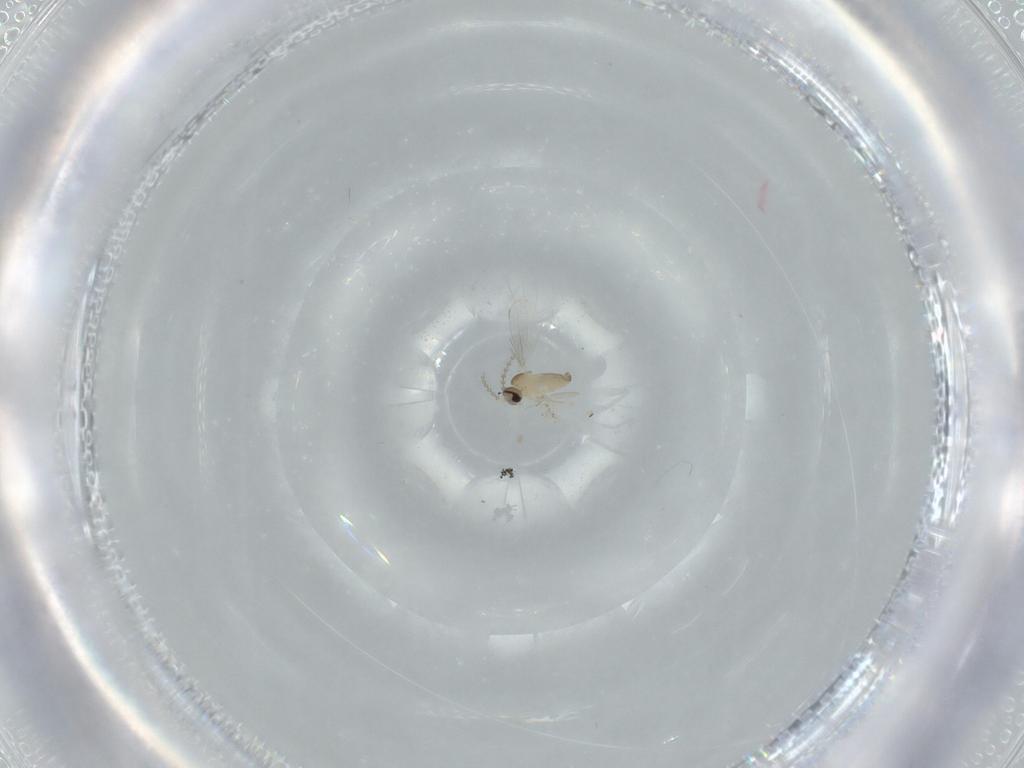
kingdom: Animalia
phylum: Arthropoda
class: Insecta
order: Diptera
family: Cecidomyiidae
